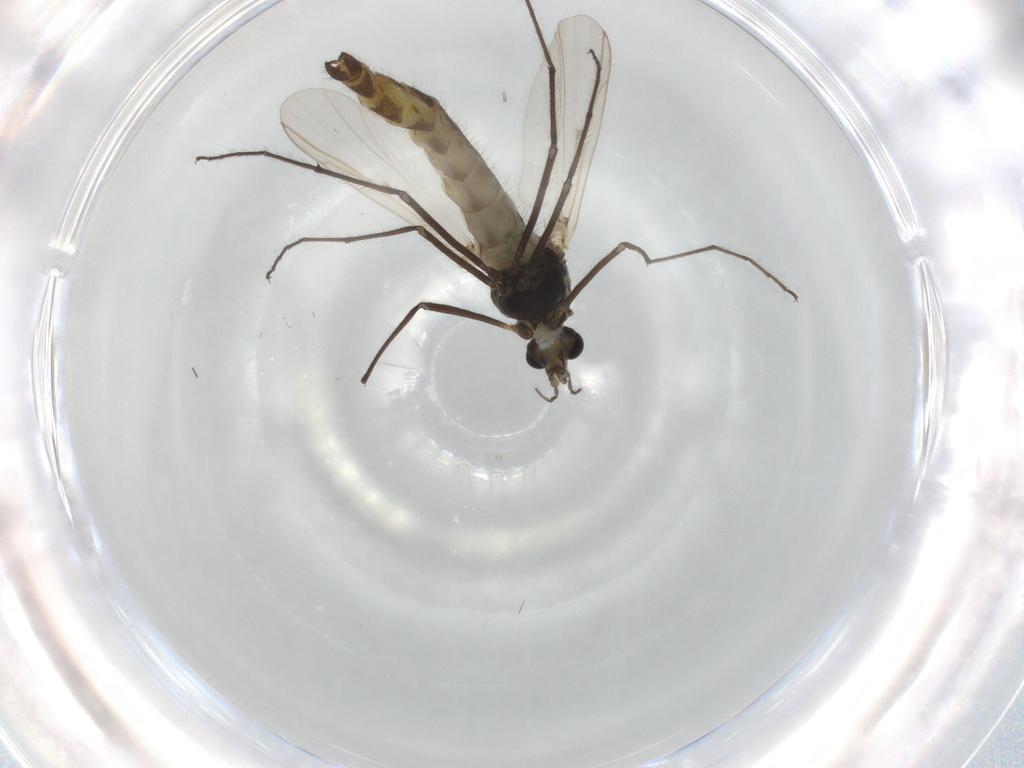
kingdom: Animalia
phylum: Arthropoda
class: Insecta
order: Diptera
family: Chironomidae
